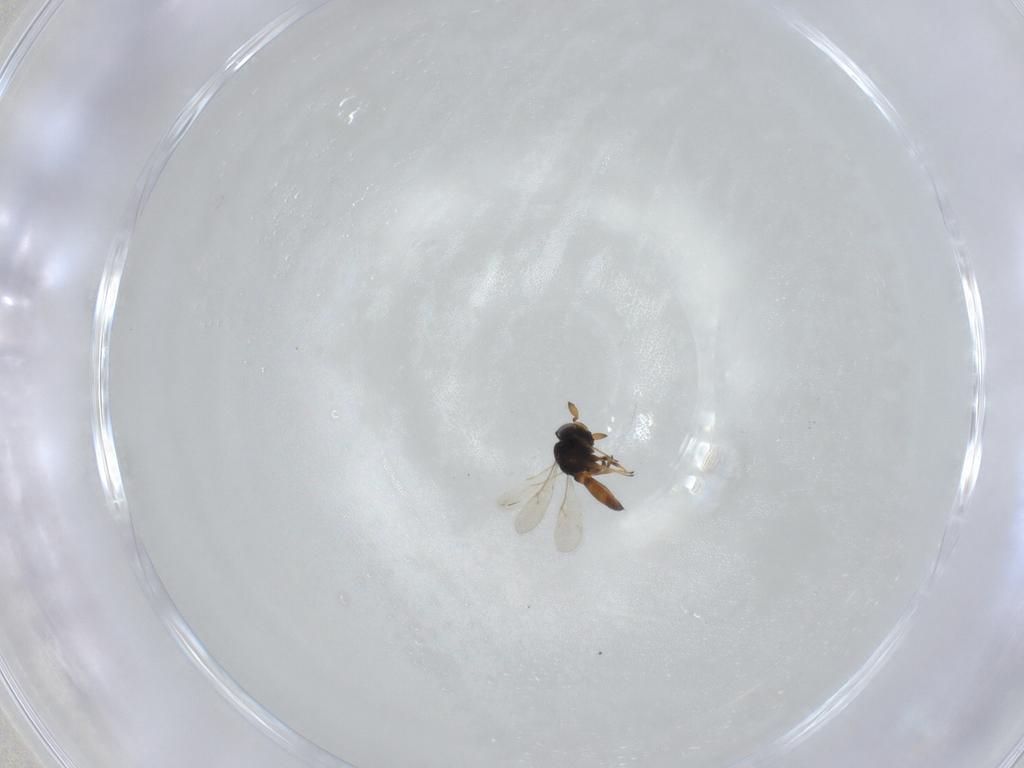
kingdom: Animalia
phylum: Arthropoda
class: Insecta
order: Hymenoptera
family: Scelionidae
